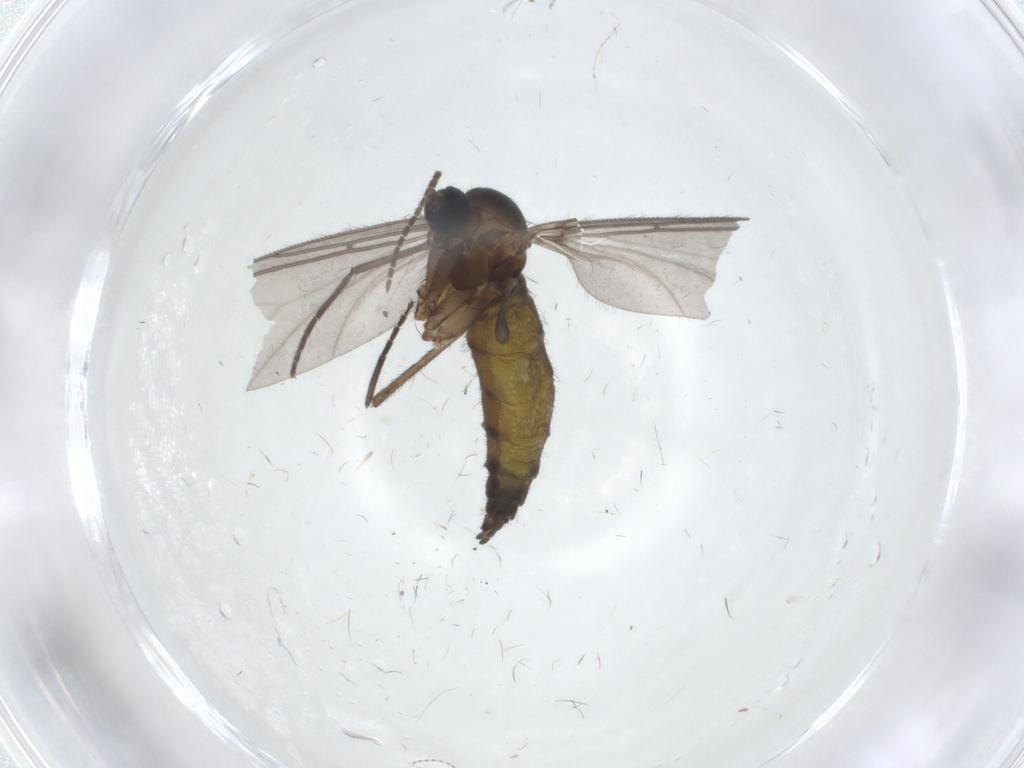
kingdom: Animalia
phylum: Arthropoda
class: Insecta
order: Diptera
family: Sciaridae
